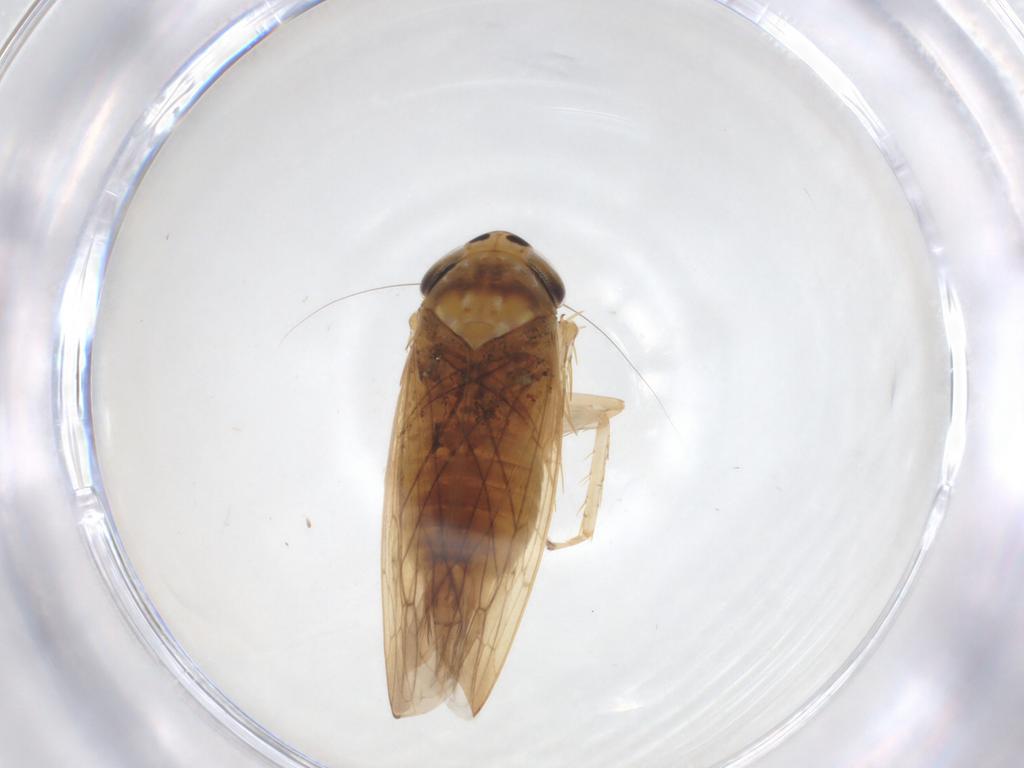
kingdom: Animalia
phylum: Arthropoda
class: Insecta
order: Hemiptera
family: Cicadellidae
